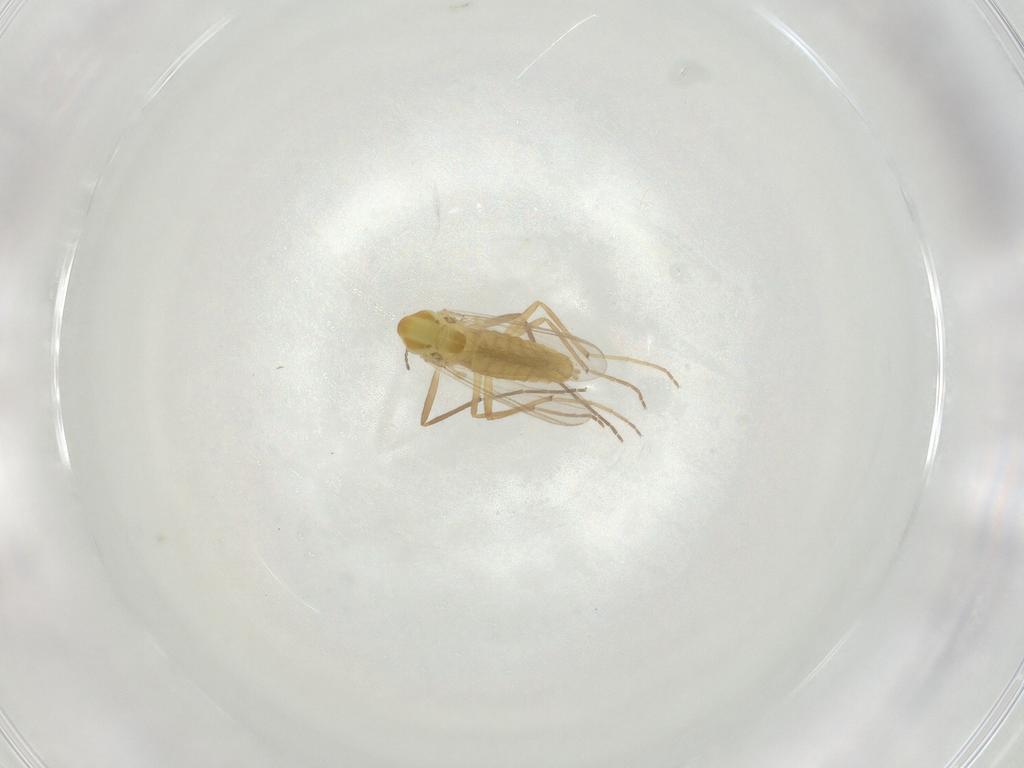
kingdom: Animalia
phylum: Arthropoda
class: Insecta
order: Diptera
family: Chironomidae
